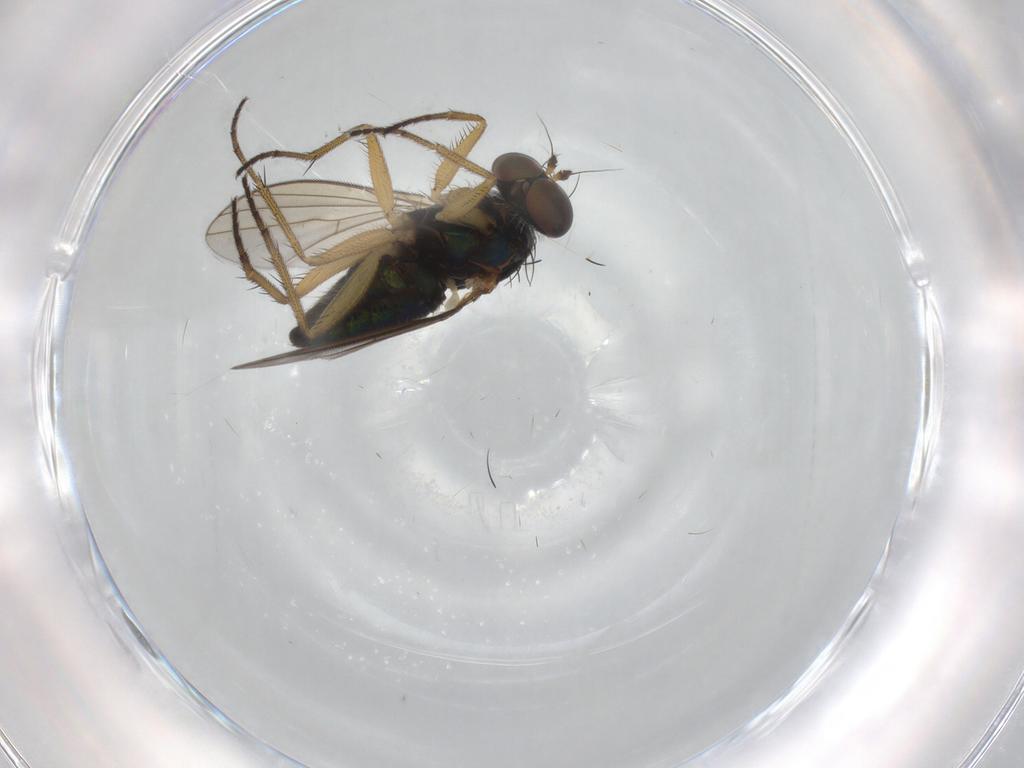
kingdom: Animalia
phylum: Arthropoda
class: Insecta
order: Diptera
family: Dolichopodidae
